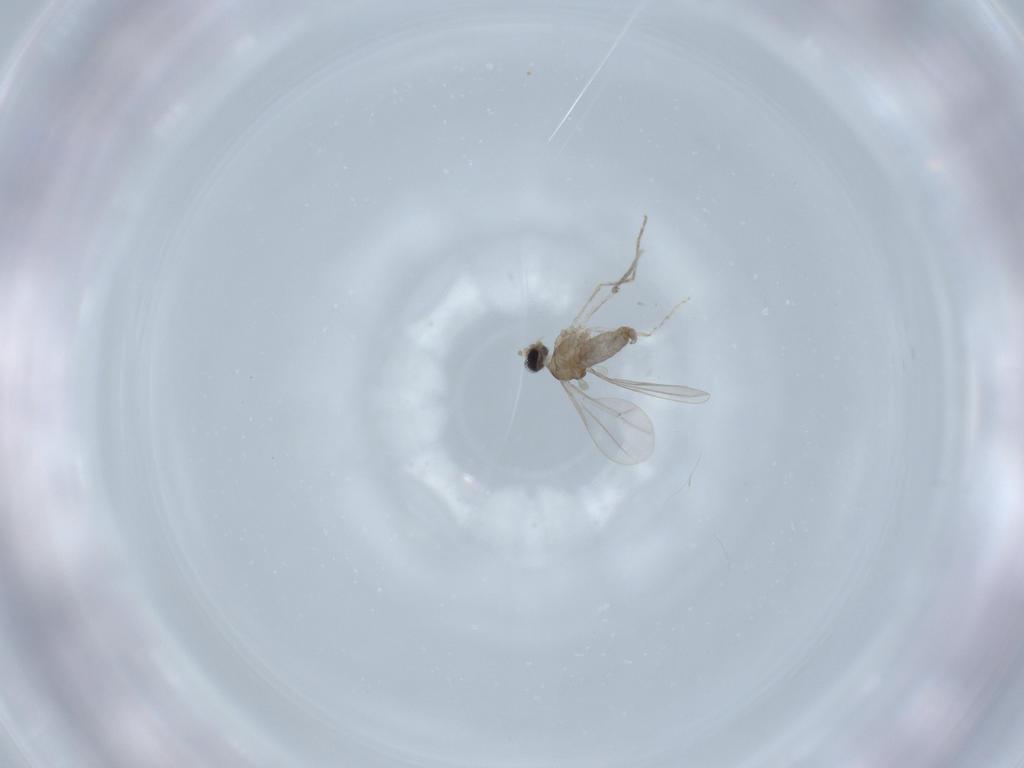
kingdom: Animalia
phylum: Arthropoda
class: Insecta
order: Diptera
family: Cecidomyiidae
